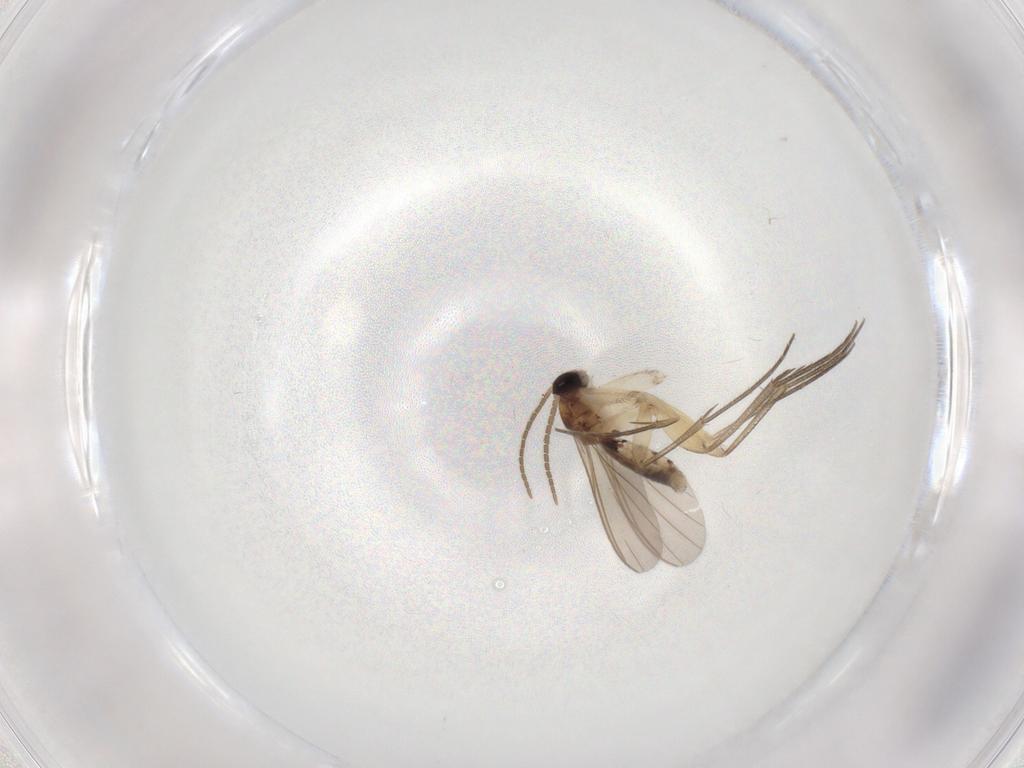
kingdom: Animalia
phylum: Arthropoda
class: Insecta
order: Diptera
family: Mycetophilidae
